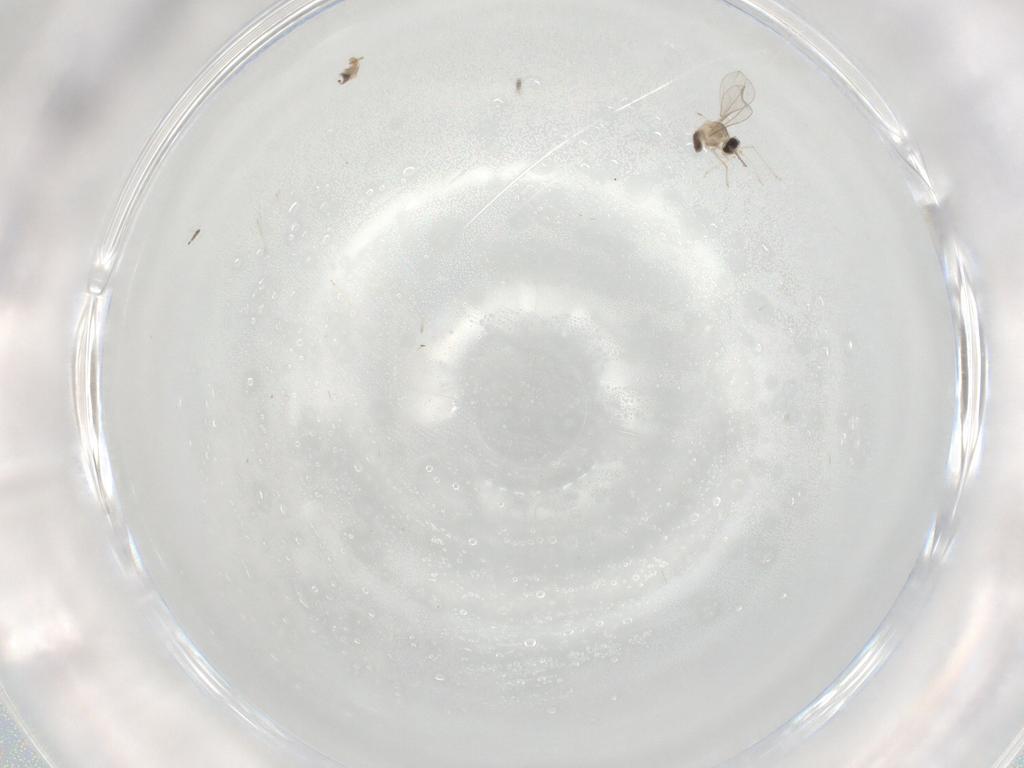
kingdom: Animalia
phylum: Arthropoda
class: Insecta
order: Diptera
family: Cecidomyiidae
